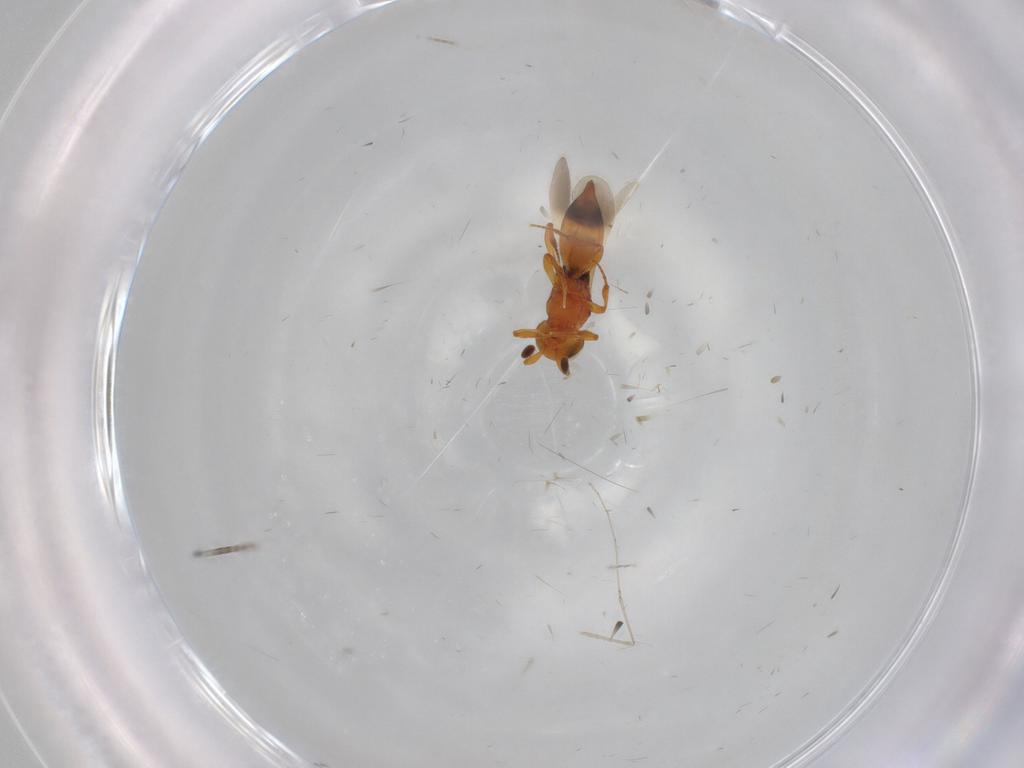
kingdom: Animalia
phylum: Arthropoda
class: Insecta
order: Hymenoptera
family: Platygastridae
